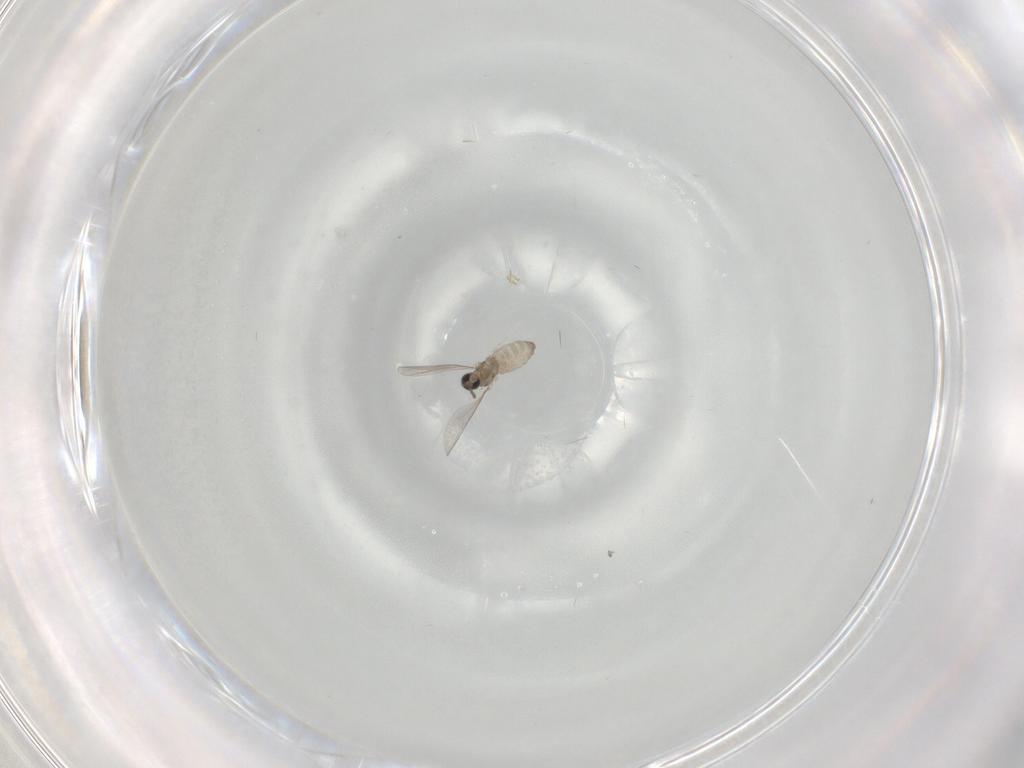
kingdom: Animalia
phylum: Arthropoda
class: Insecta
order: Diptera
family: Cecidomyiidae
